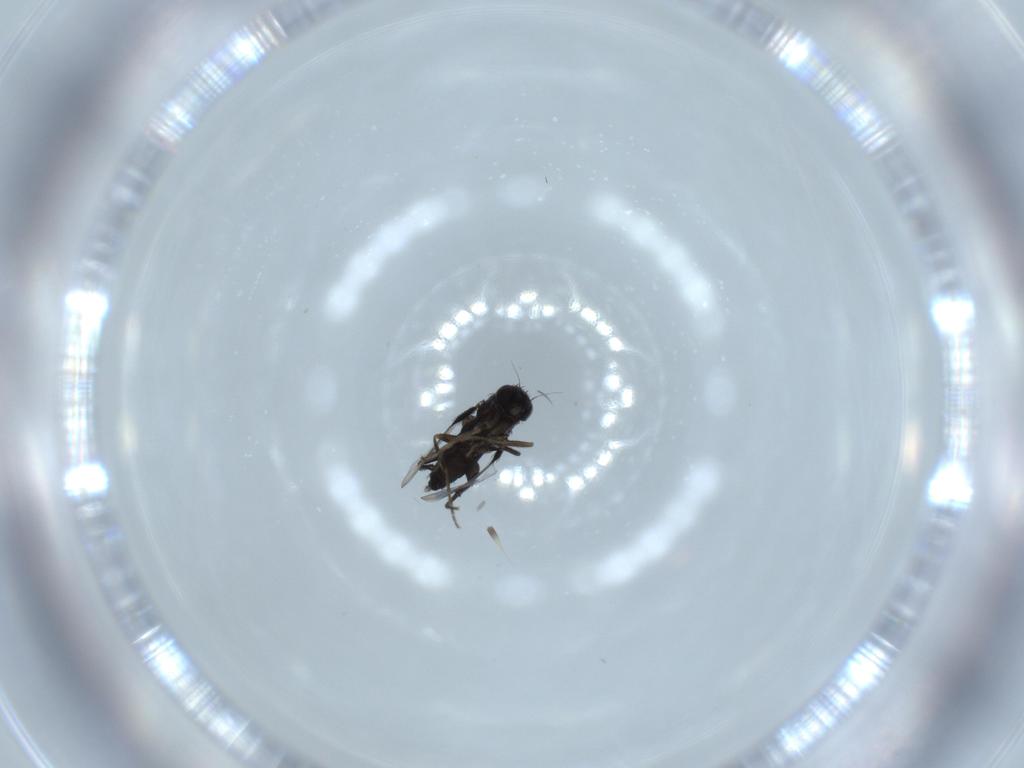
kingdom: Animalia
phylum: Arthropoda
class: Insecta
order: Diptera
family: Phoridae
